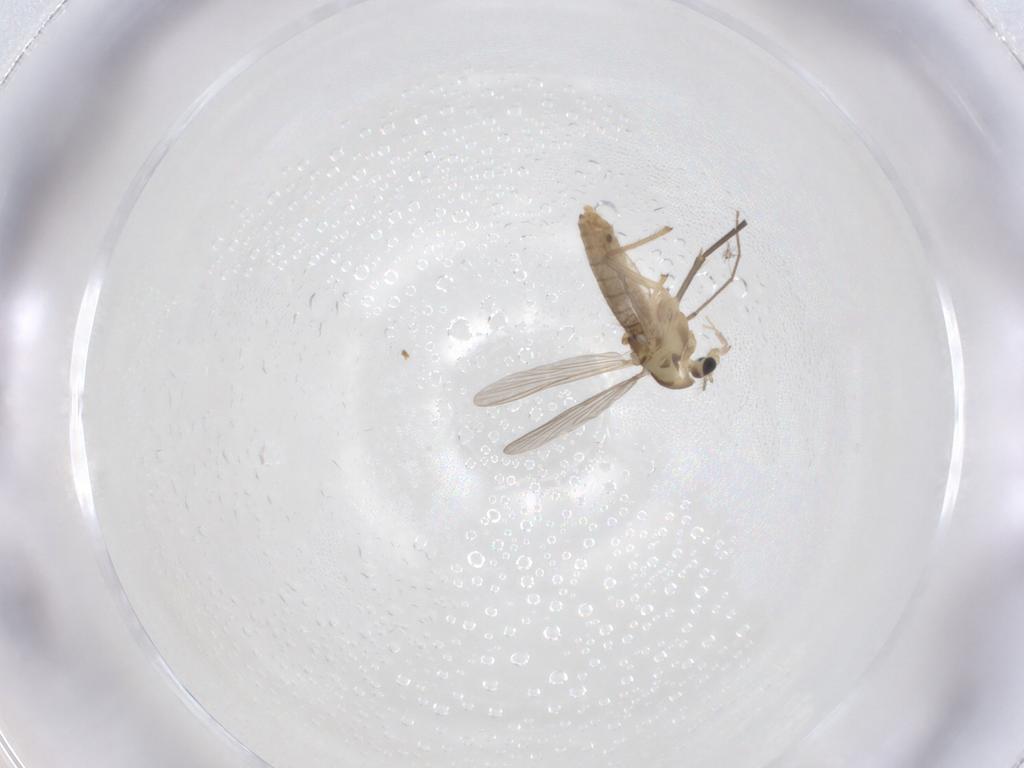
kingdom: Animalia
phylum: Arthropoda
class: Insecta
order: Diptera
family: Chironomidae
